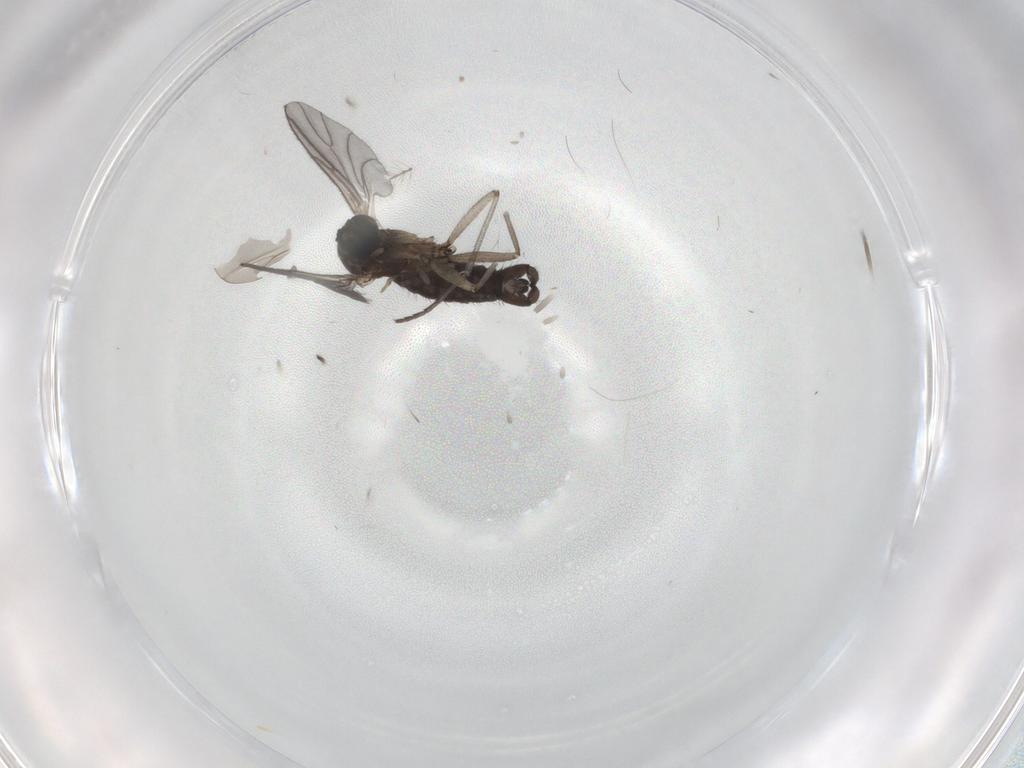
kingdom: Animalia
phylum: Arthropoda
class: Insecta
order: Diptera
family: Sciaridae
